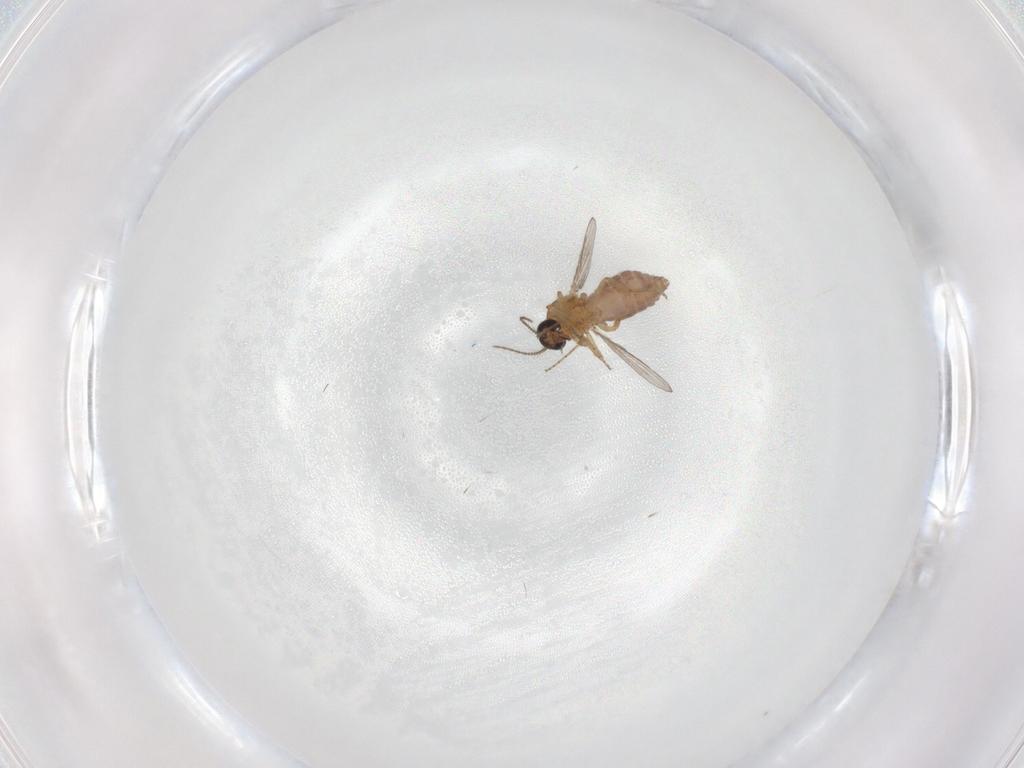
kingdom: Animalia
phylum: Arthropoda
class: Insecta
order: Diptera
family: Ceratopogonidae
